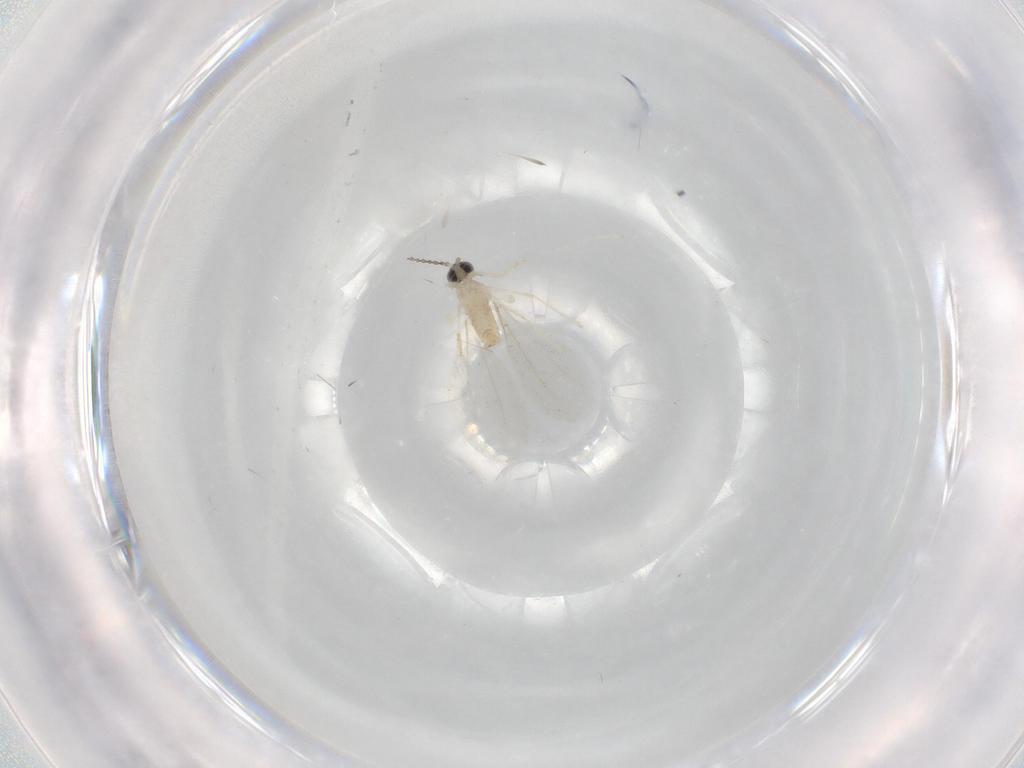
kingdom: Animalia
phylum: Arthropoda
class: Insecta
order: Diptera
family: Cecidomyiidae
